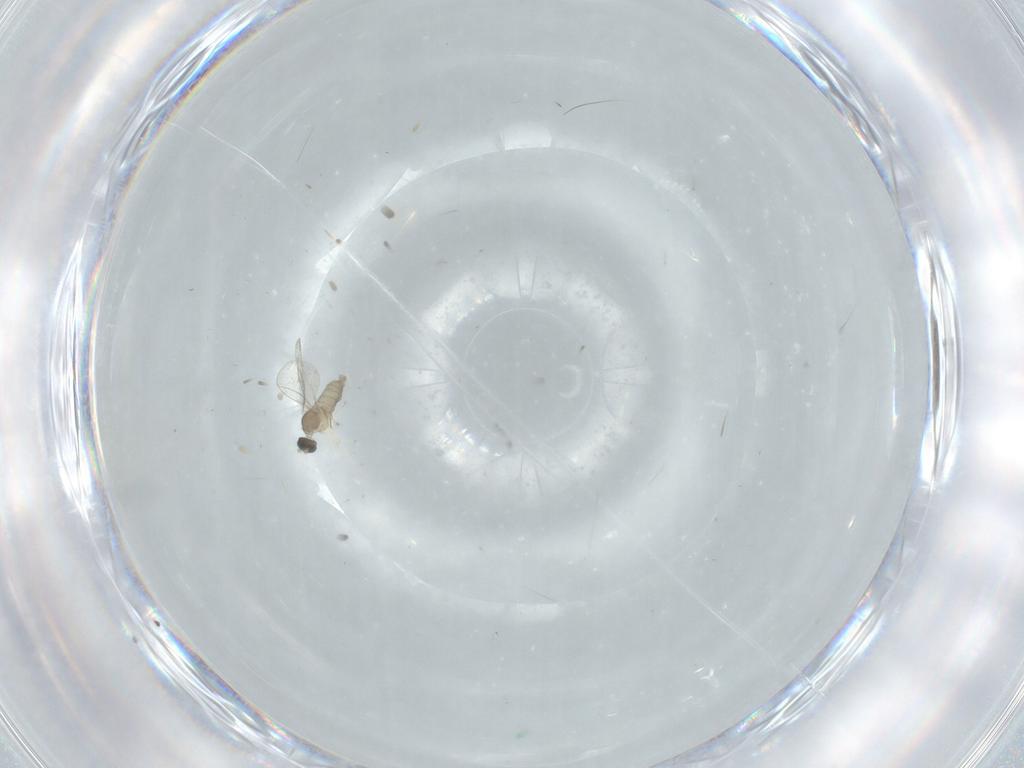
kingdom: Animalia
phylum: Arthropoda
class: Insecta
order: Diptera
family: Cecidomyiidae
